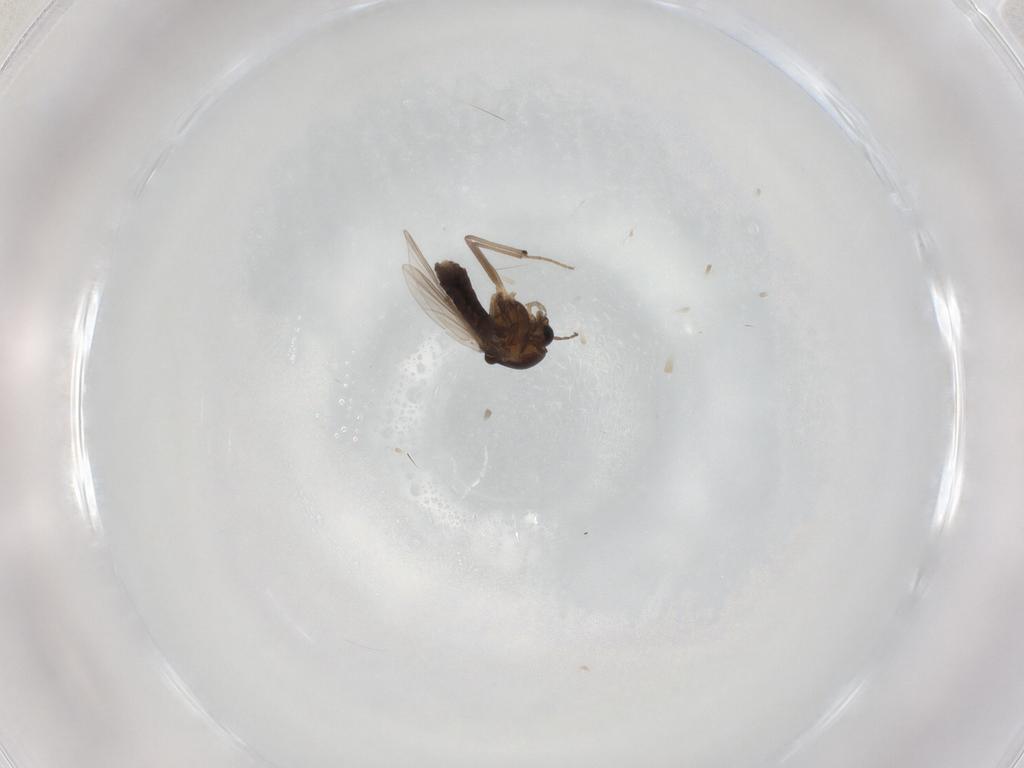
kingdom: Animalia
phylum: Arthropoda
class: Insecta
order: Diptera
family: Chironomidae
